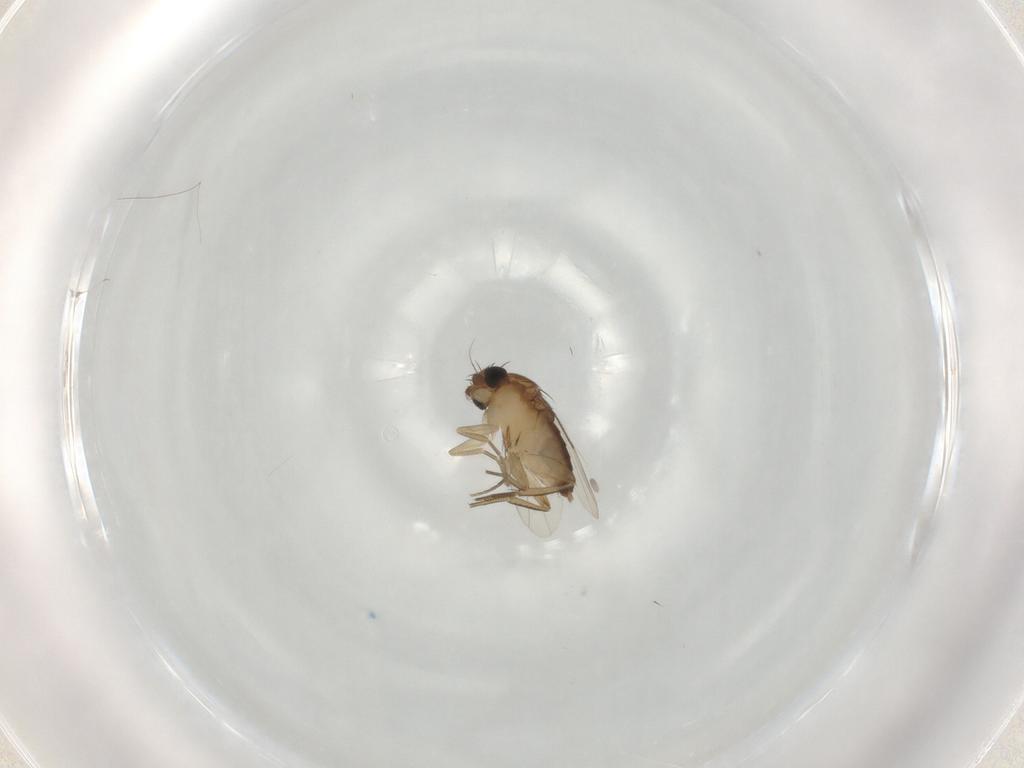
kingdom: Animalia
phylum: Arthropoda
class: Insecta
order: Diptera
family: Phoridae
